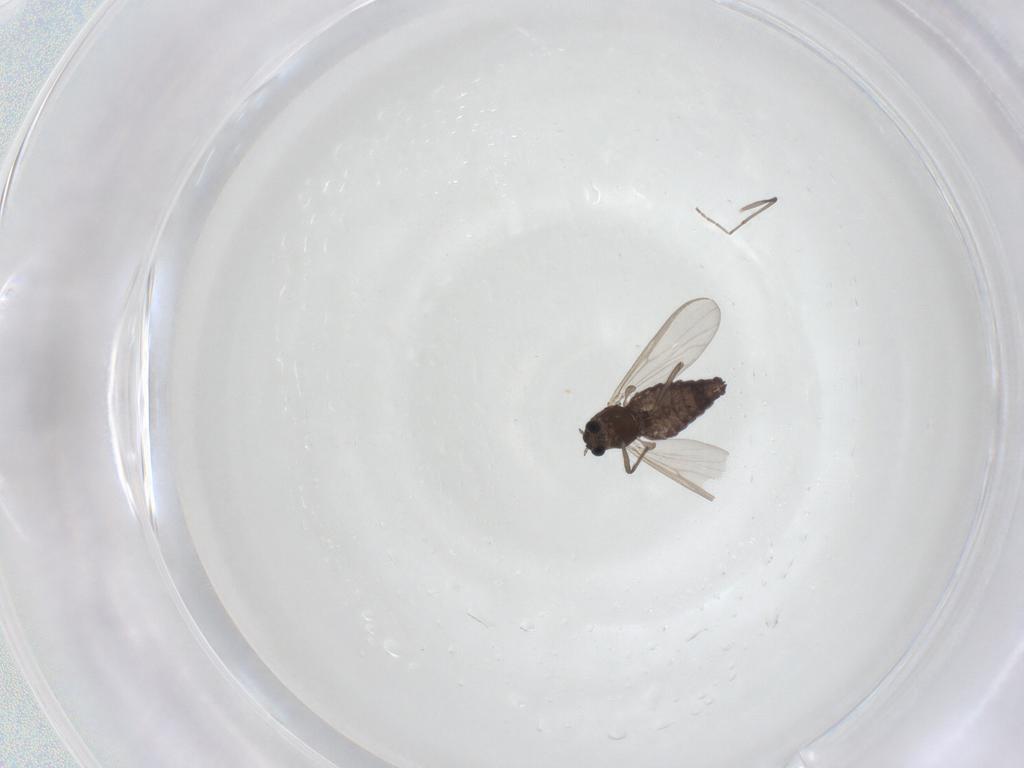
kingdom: Animalia
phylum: Arthropoda
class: Insecta
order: Diptera
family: Chironomidae
